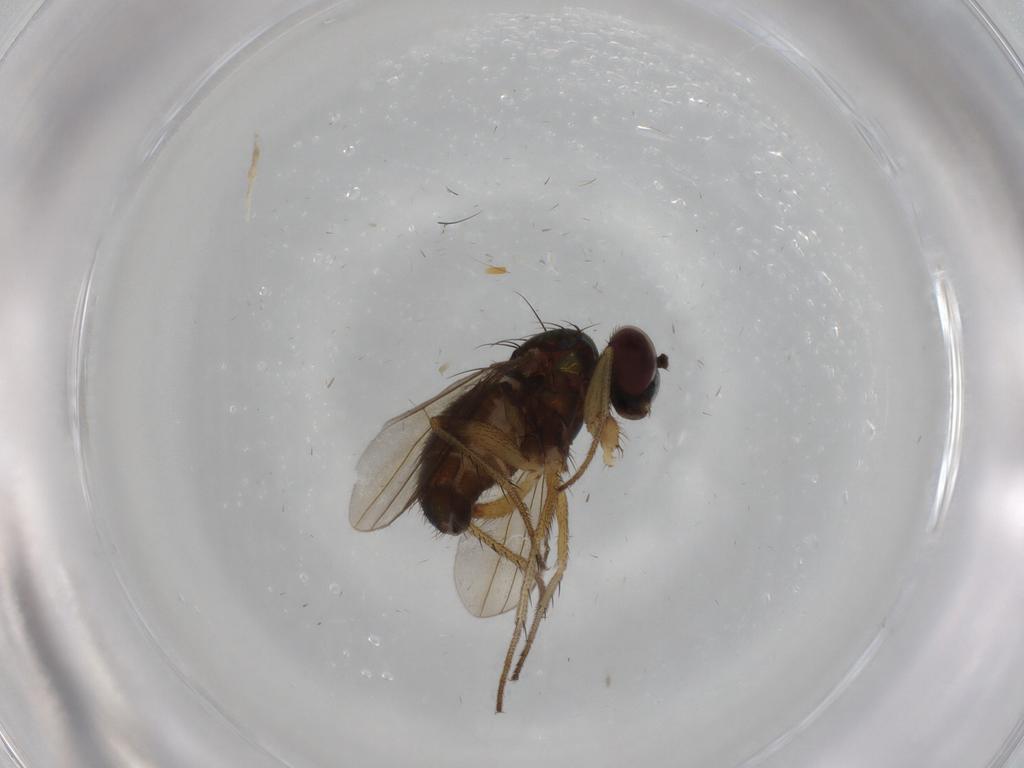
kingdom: Animalia
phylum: Arthropoda
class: Insecta
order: Diptera
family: Dolichopodidae
